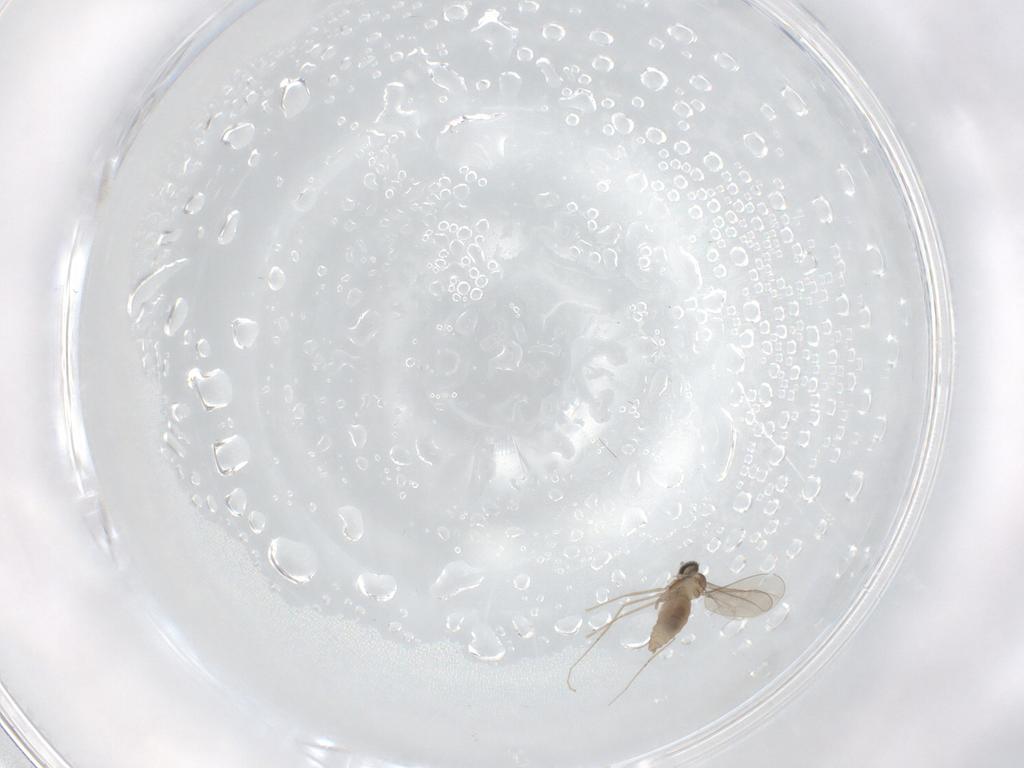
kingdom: Animalia
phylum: Arthropoda
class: Insecta
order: Diptera
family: Cecidomyiidae
